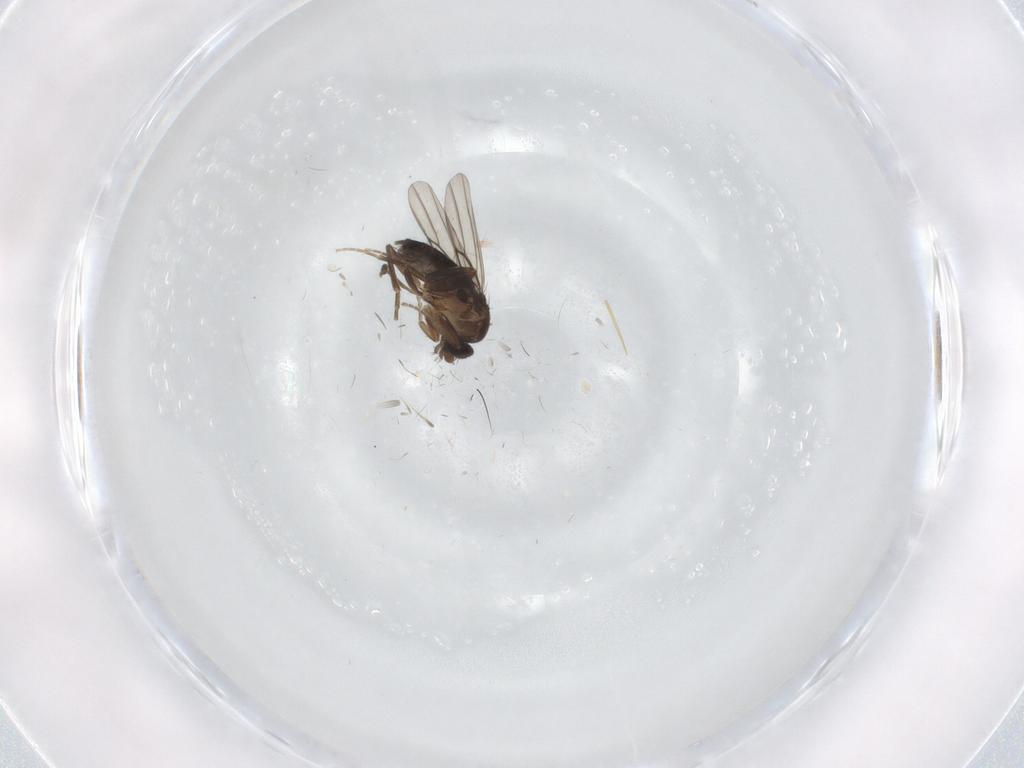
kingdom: Animalia
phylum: Arthropoda
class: Insecta
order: Diptera
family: Phoridae
